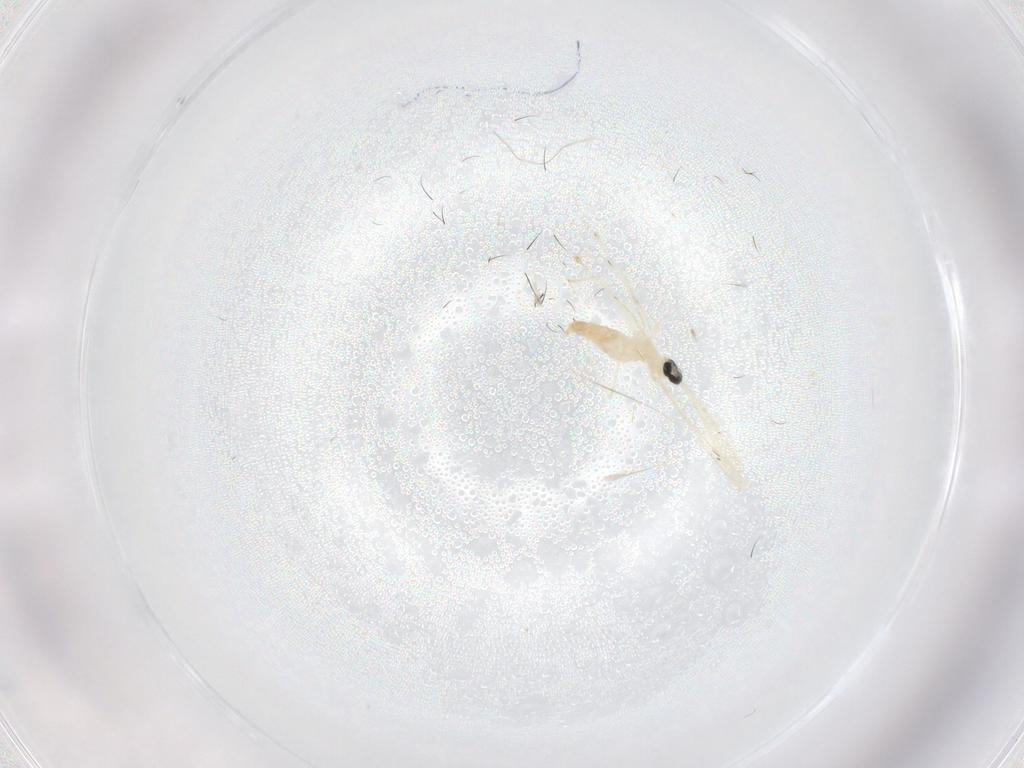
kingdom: Animalia
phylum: Arthropoda
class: Insecta
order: Diptera
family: Cecidomyiidae
